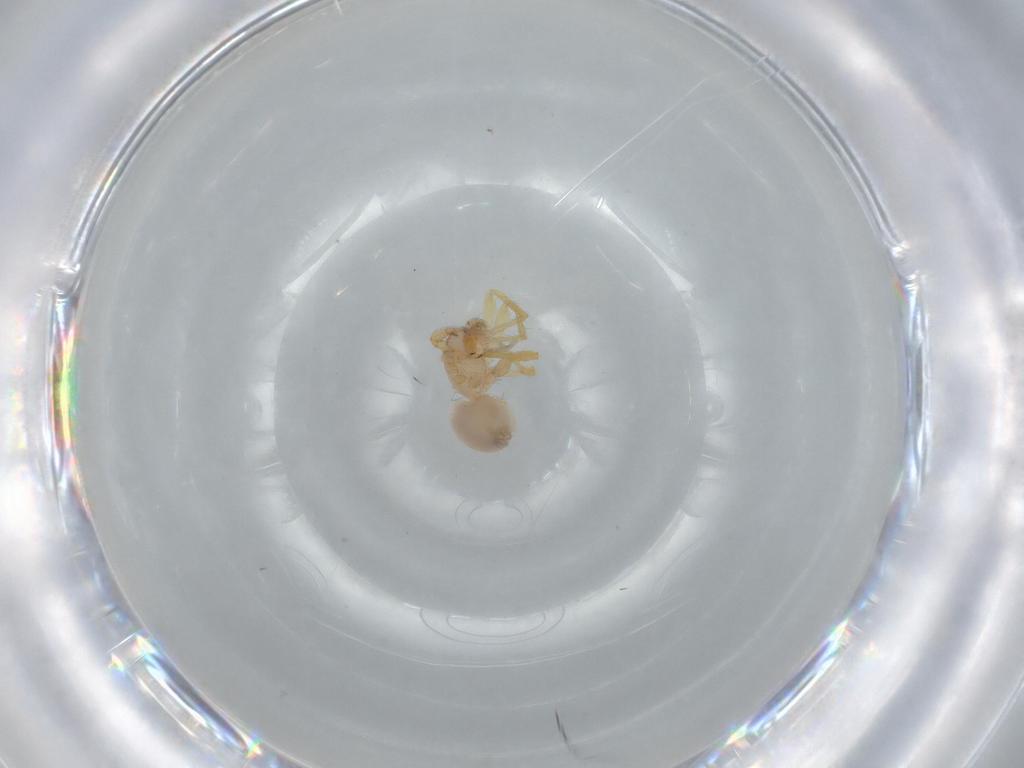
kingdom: Animalia
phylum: Arthropoda
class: Arachnida
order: Araneae
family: Oonopidae
